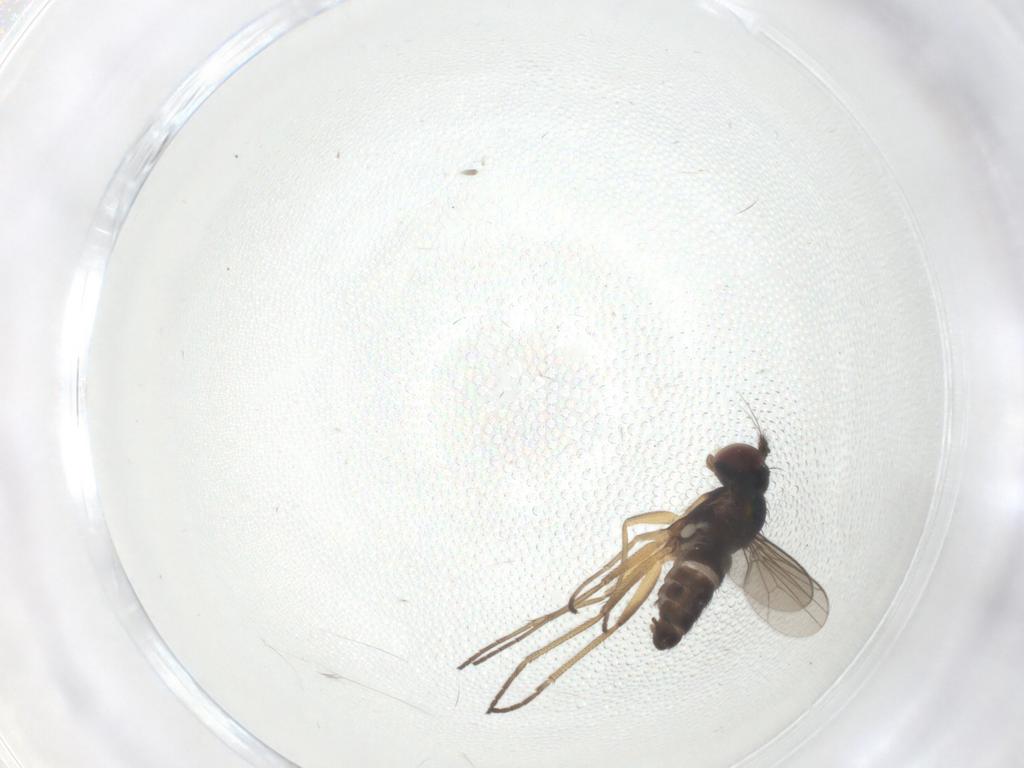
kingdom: Animalia
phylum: Arthropoda
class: Insecta
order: Diptera
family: Dolichopodidae
